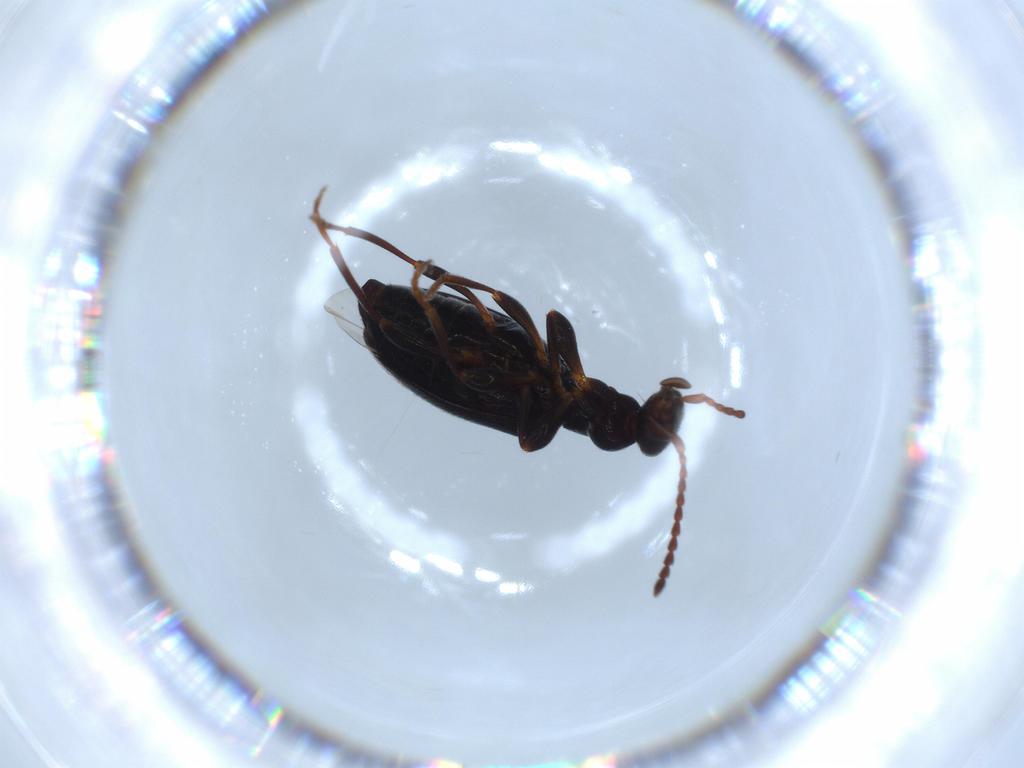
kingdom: Animalia
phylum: Arthropoda
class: Insecta
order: Coleoptera
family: Anthicidae
